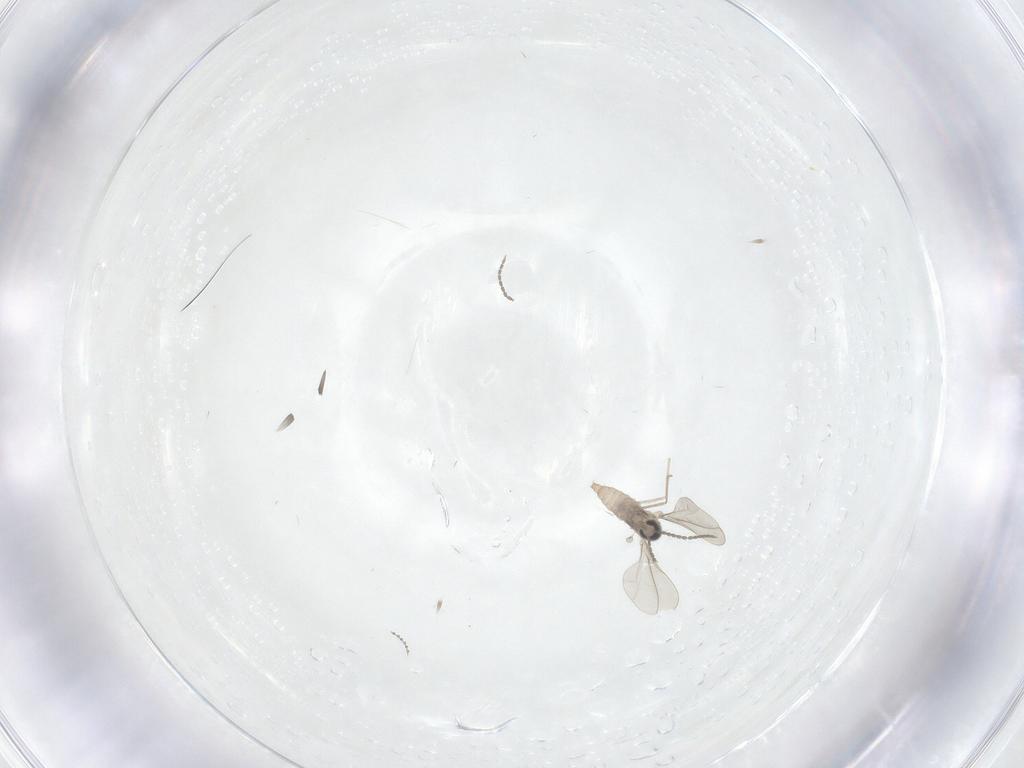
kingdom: Animalia
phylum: Arthropoda
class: Insecta
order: Diptera
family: Cecidomyiidae
